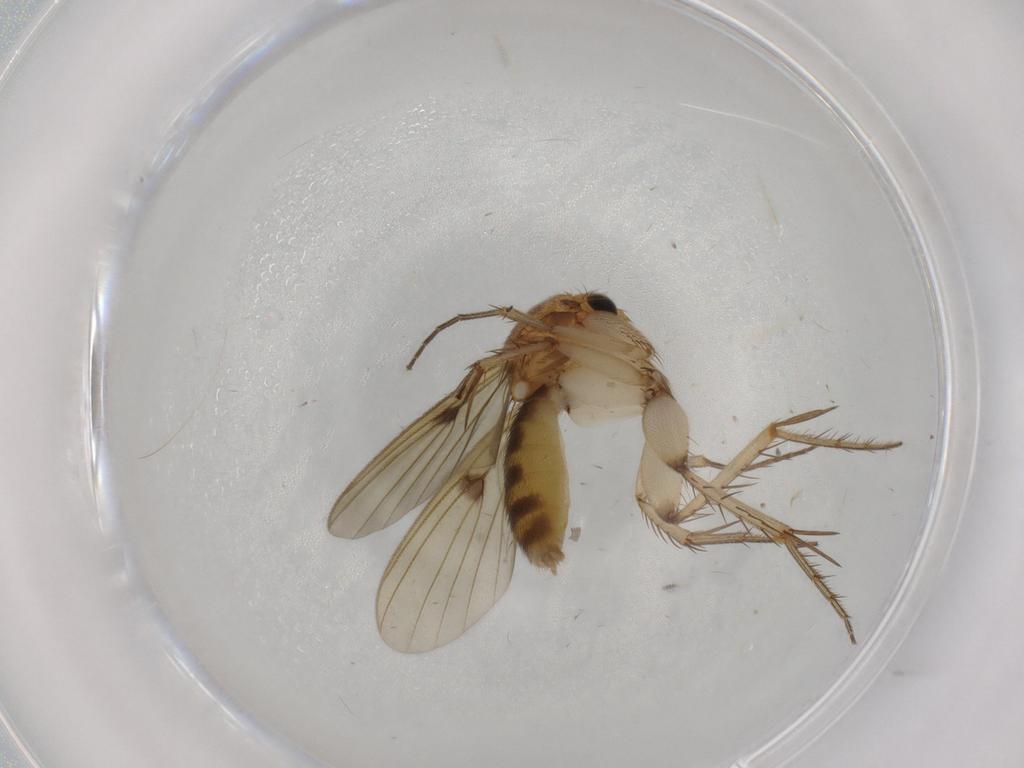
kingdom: Animalia
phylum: Arthropoda
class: Insecta
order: Diptera
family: Mycetophilidae
